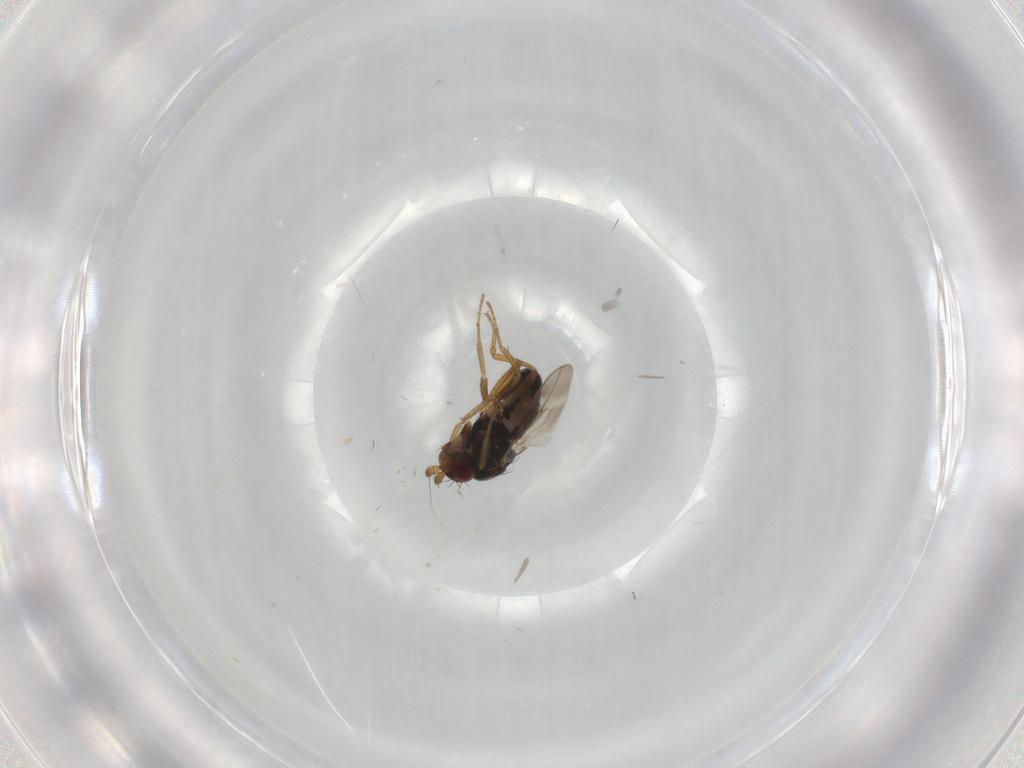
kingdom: Animalia
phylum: Arthropoda
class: Insecta
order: Diptera
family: Sphaeroceridae
